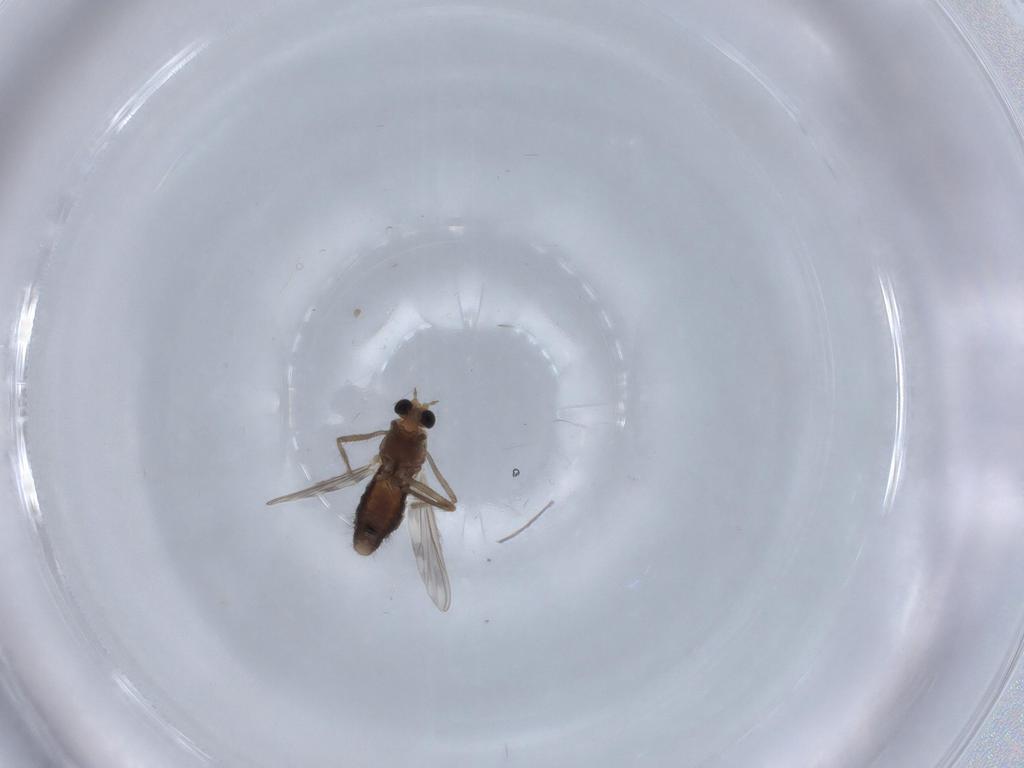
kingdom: Animalia
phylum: Arthropoda
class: Insecta
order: Diptera
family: Chironomidae
